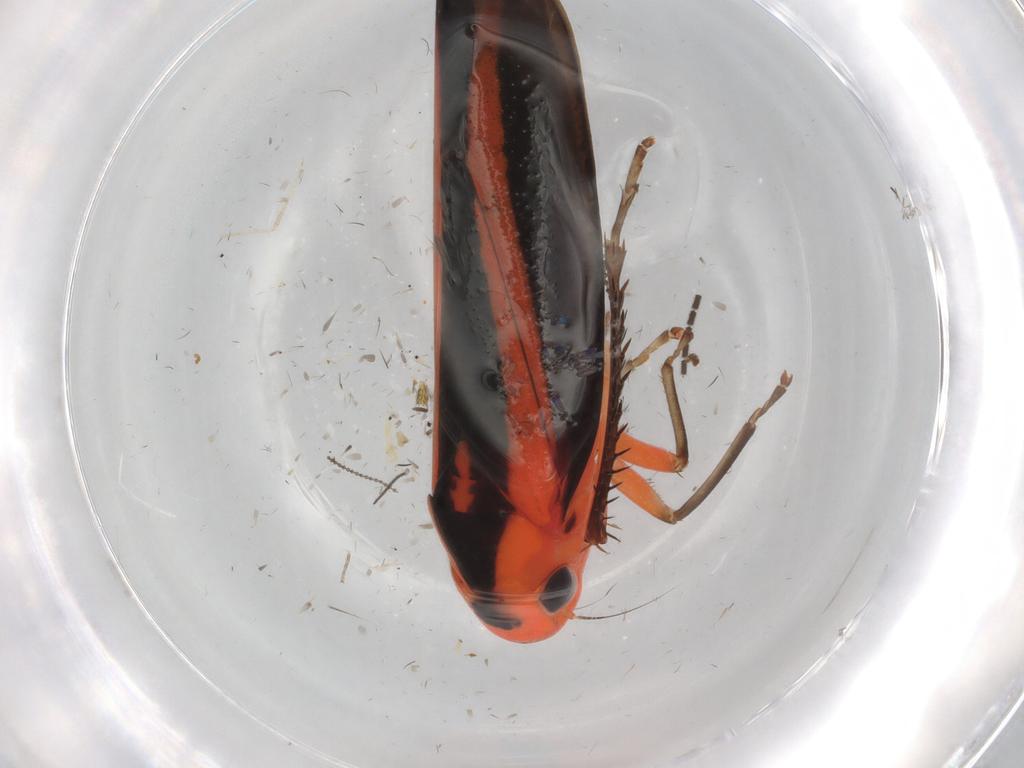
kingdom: Animalia
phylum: Arthropoda
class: Insecta
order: Hemiptera
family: Cicadellidae
